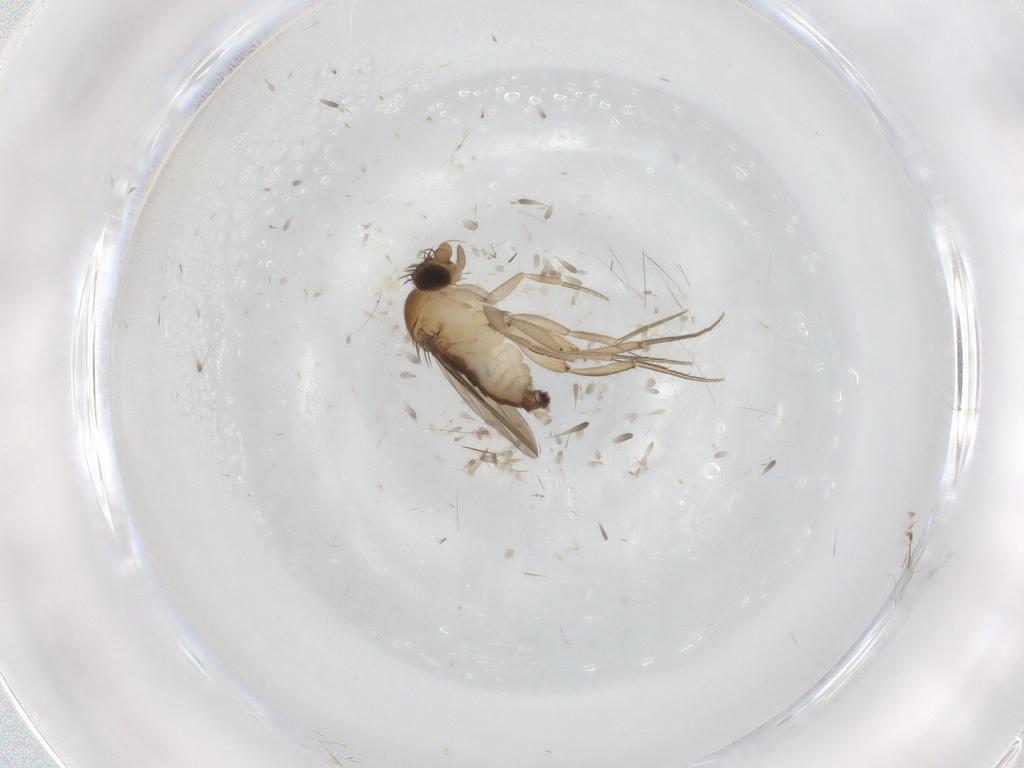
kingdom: Animalia
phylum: Arthropoda
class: Insecta
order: Diptera
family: Phoridae
